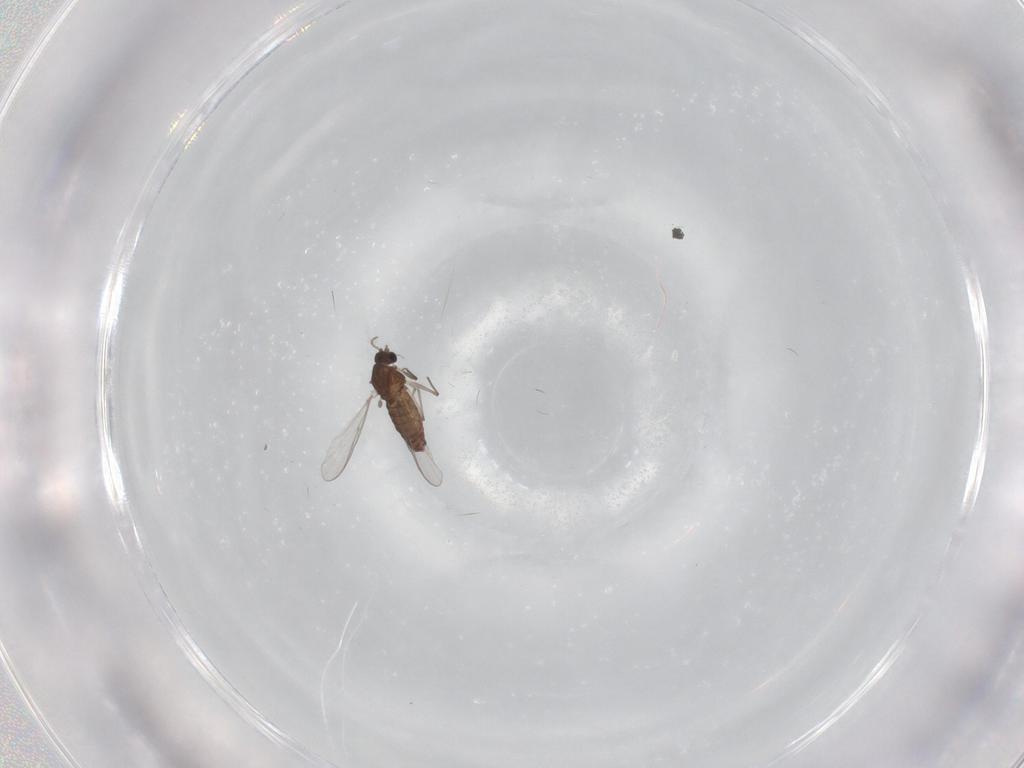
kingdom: Animalia
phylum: Arthropoda
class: Insecta
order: Diptera
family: Chironomidae
